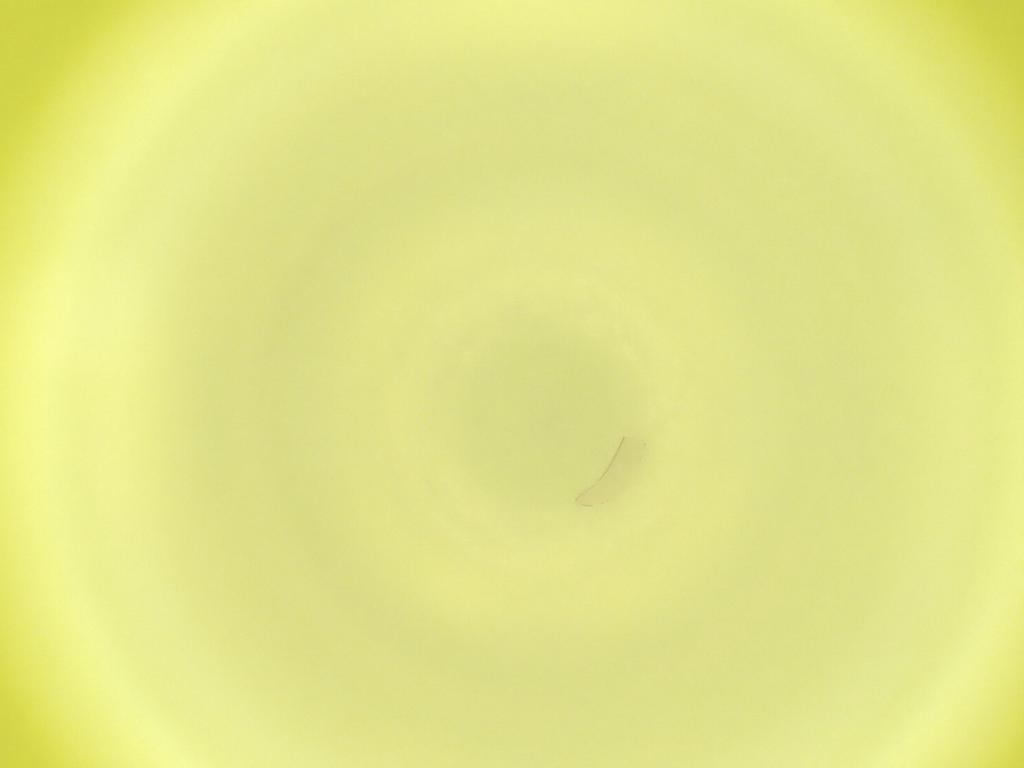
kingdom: Animalia
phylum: Arthropoda
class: Insecta
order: Diptera
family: Cecidomyiidae
